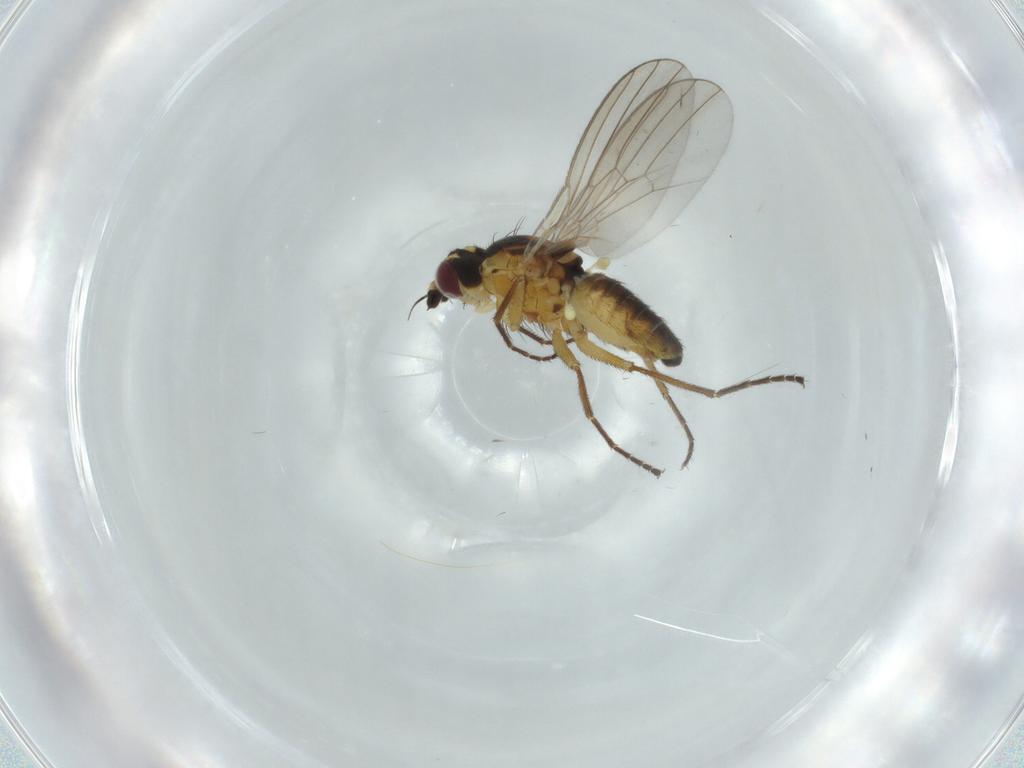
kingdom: Animalia
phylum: Arthropoda
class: Insecta
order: Diptera
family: Agromyzidae
